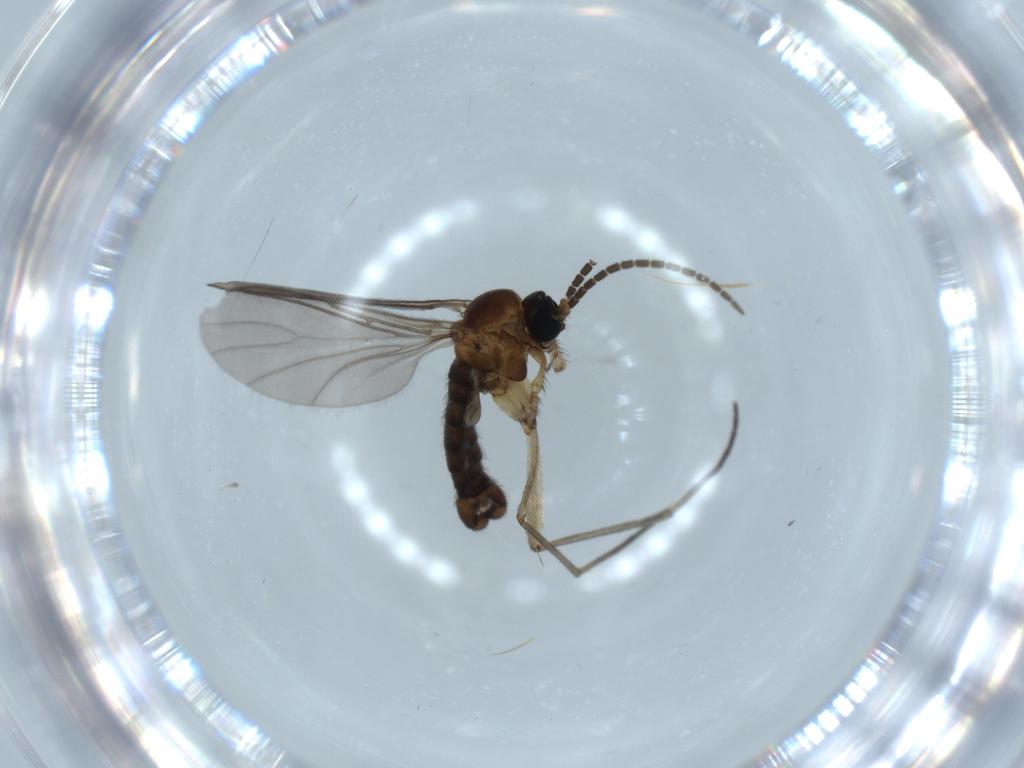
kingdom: Animalia
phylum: Arthropoda
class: Insecta
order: Diptera
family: Sciaridae
